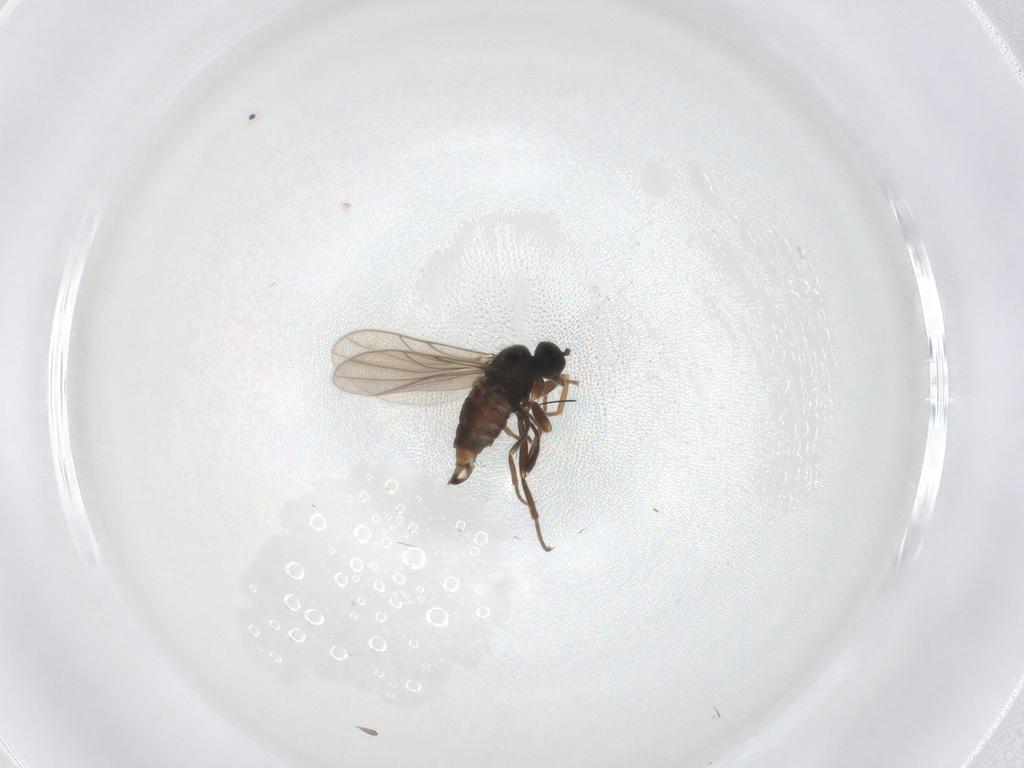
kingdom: Animalia
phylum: Arthropoda
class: Insecta
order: Diptera
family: Hybotidae
